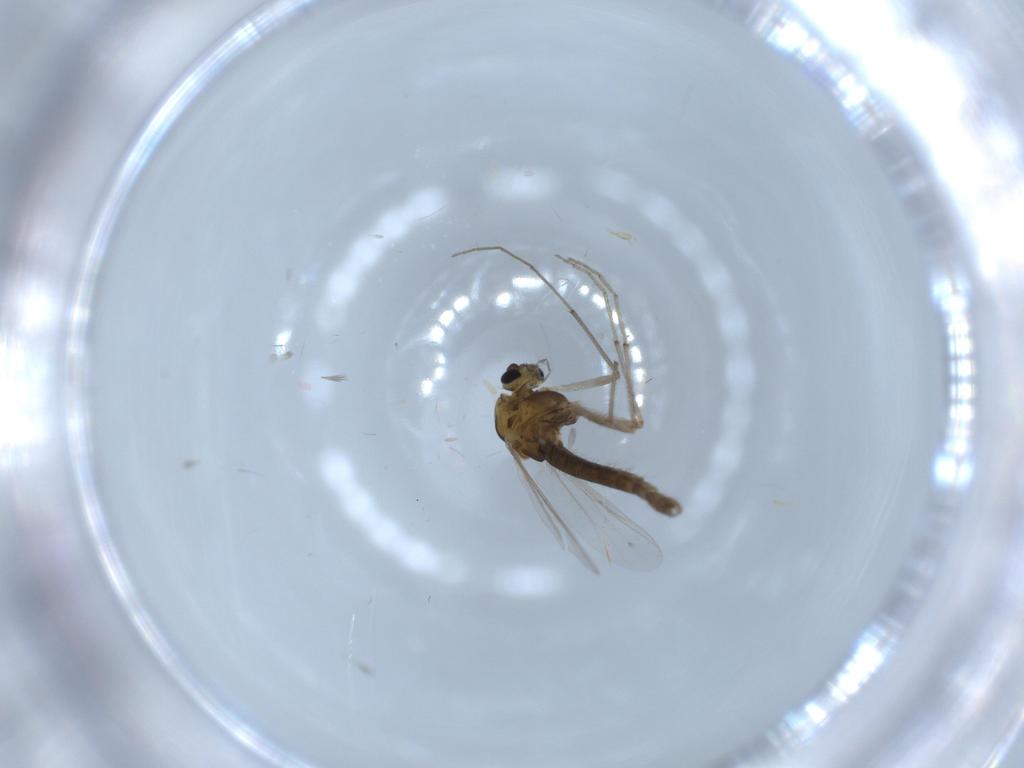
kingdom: Animalia
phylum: Arthropoda
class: Insecta
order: Diptera
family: Chironomidae
